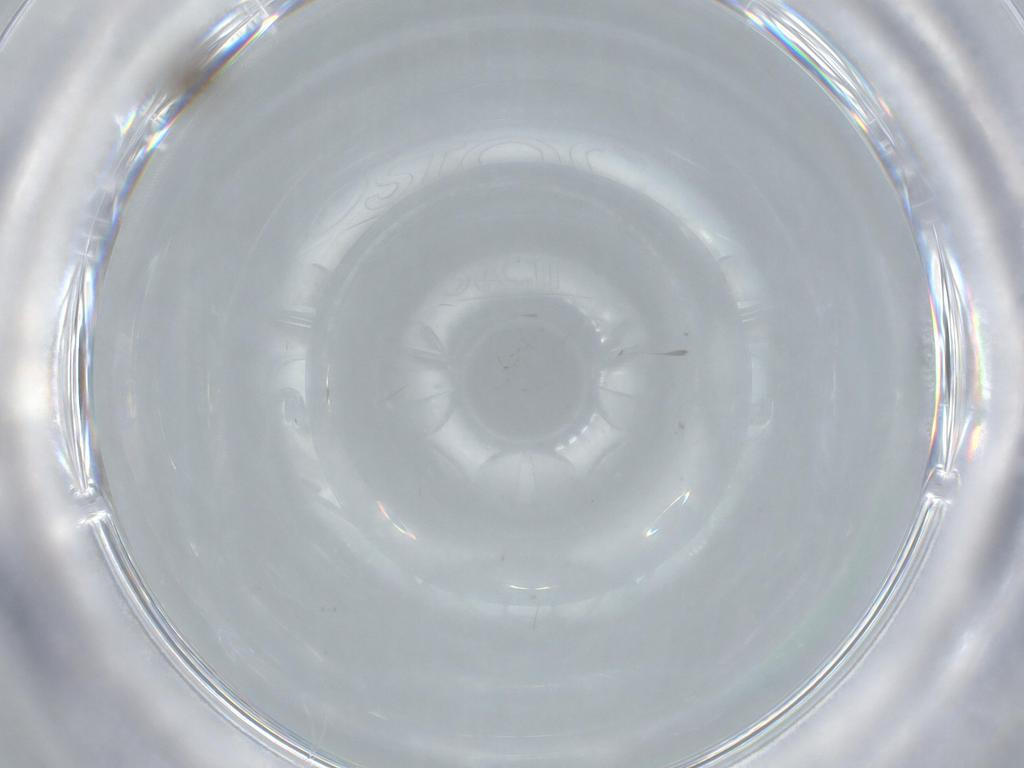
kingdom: Animalia
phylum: Arthropoda
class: Insecta
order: Diptera
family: Phoridae
